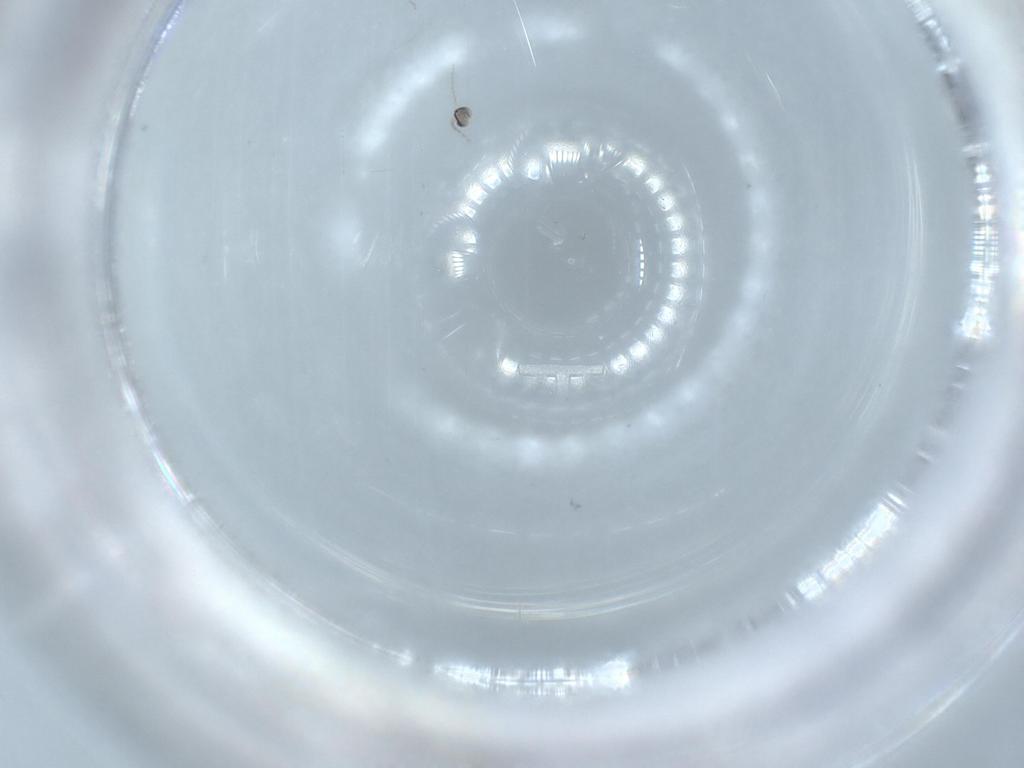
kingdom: Animalia
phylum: Arthropoda
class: Insecta
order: Diptera
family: Cecidomyiidae
